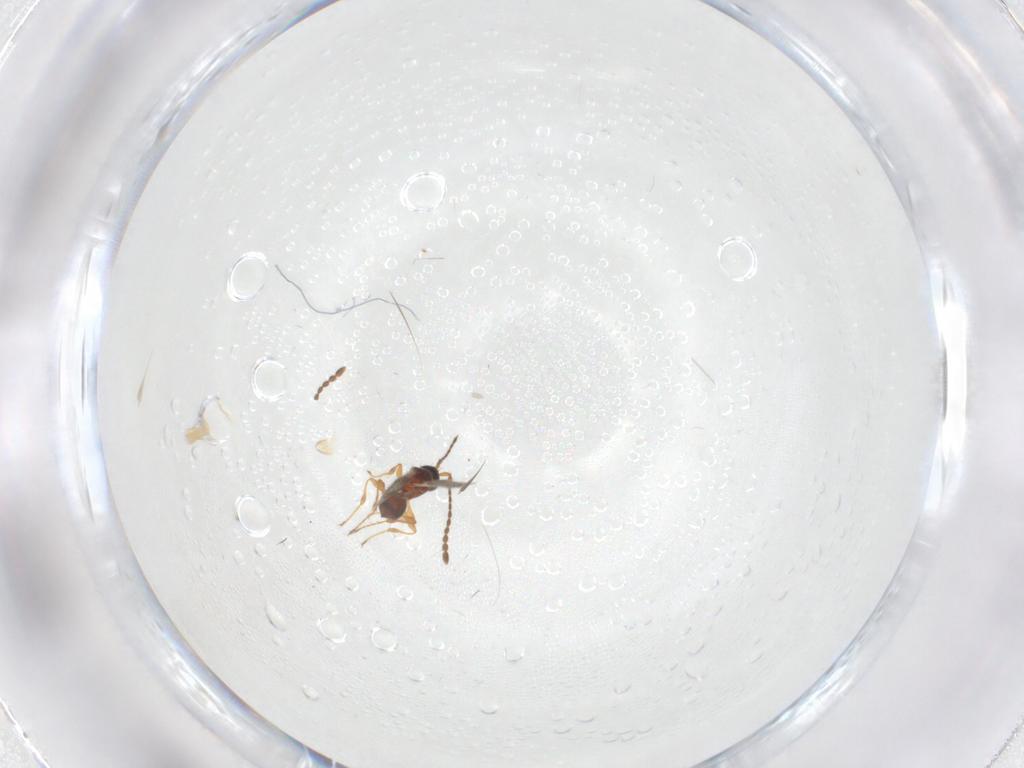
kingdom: Animalia
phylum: Arthropoda
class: Insecta
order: Hymenoptera
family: Diapriidae
